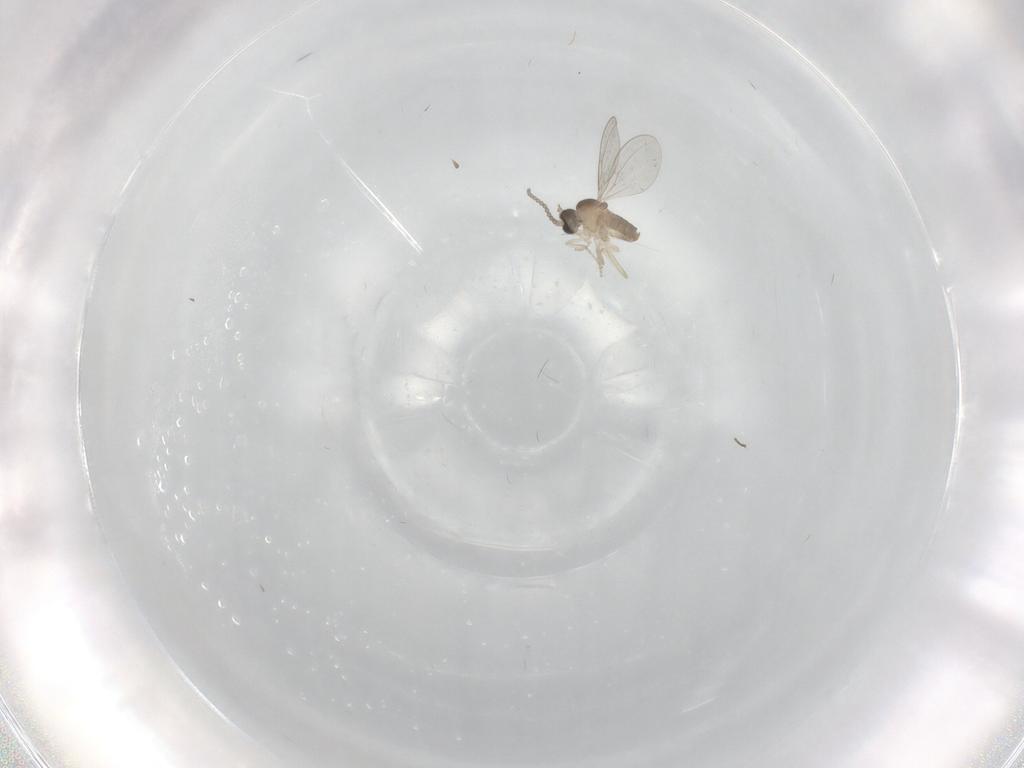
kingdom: Animalia
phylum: Arthropoda
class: Insecta
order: Diptera
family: Cecidomyiidae
